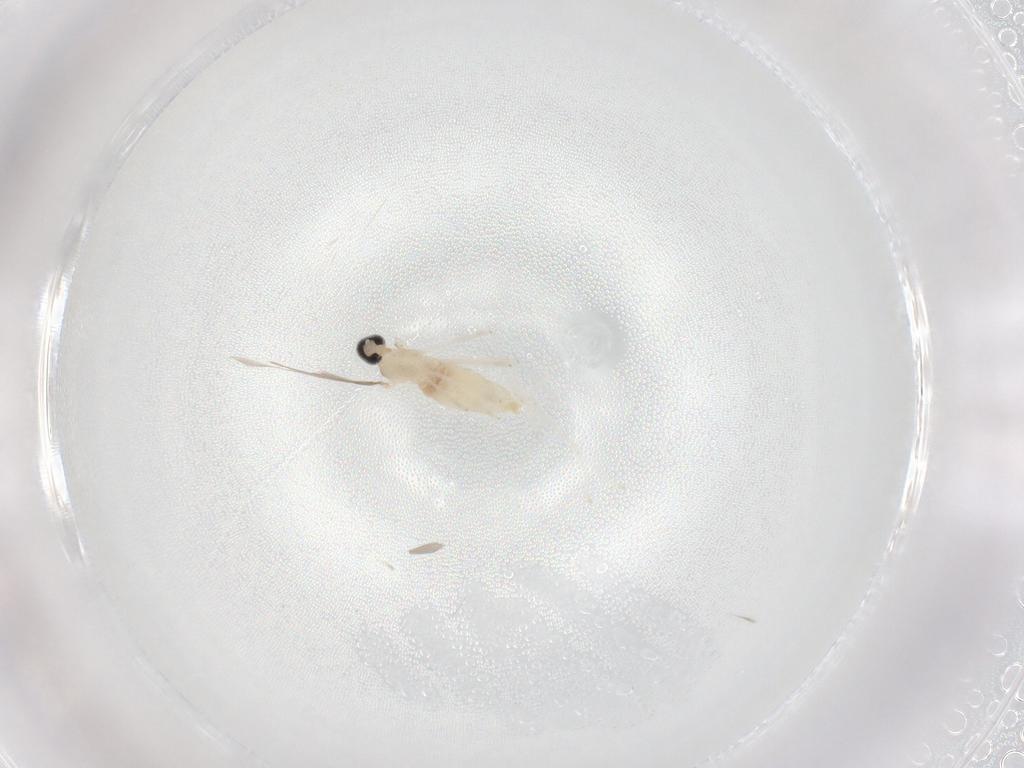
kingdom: Animalia
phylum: Arthropoda
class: Insecta
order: Diptera
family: Cecidomyiidae
